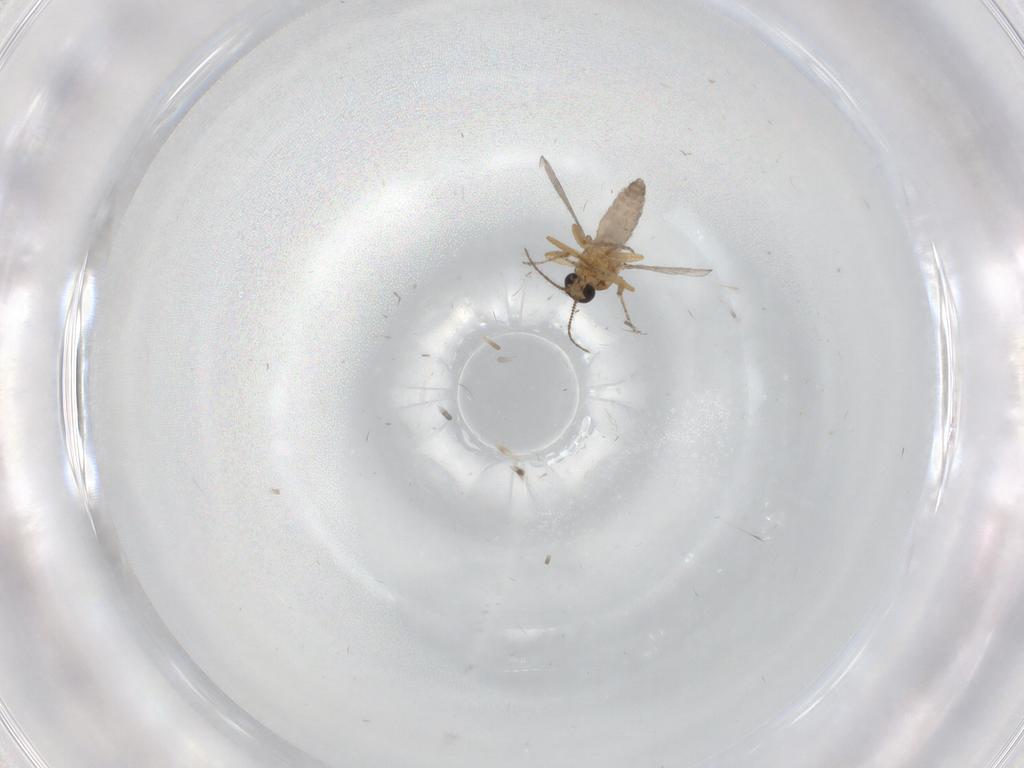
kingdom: Animalia
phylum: Arthropoda
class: Insecta
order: Diptera
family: Ceratopogonidae
